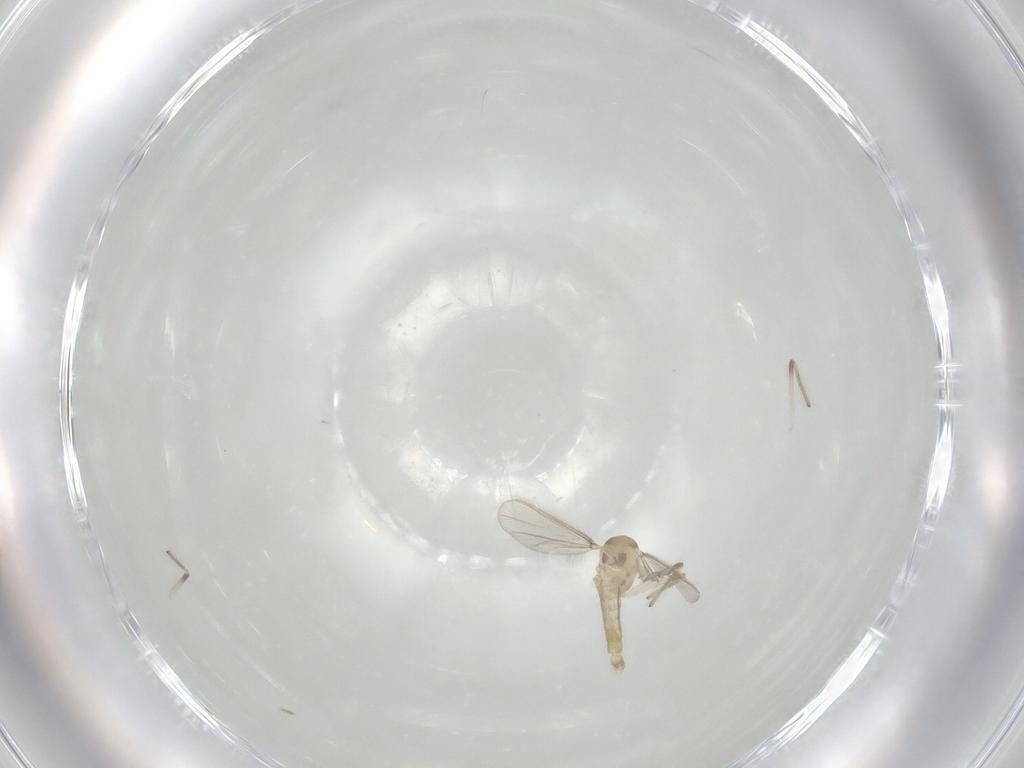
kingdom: Animalia
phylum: Arthropoda
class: Insecta
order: Diptera
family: Chironomidae
